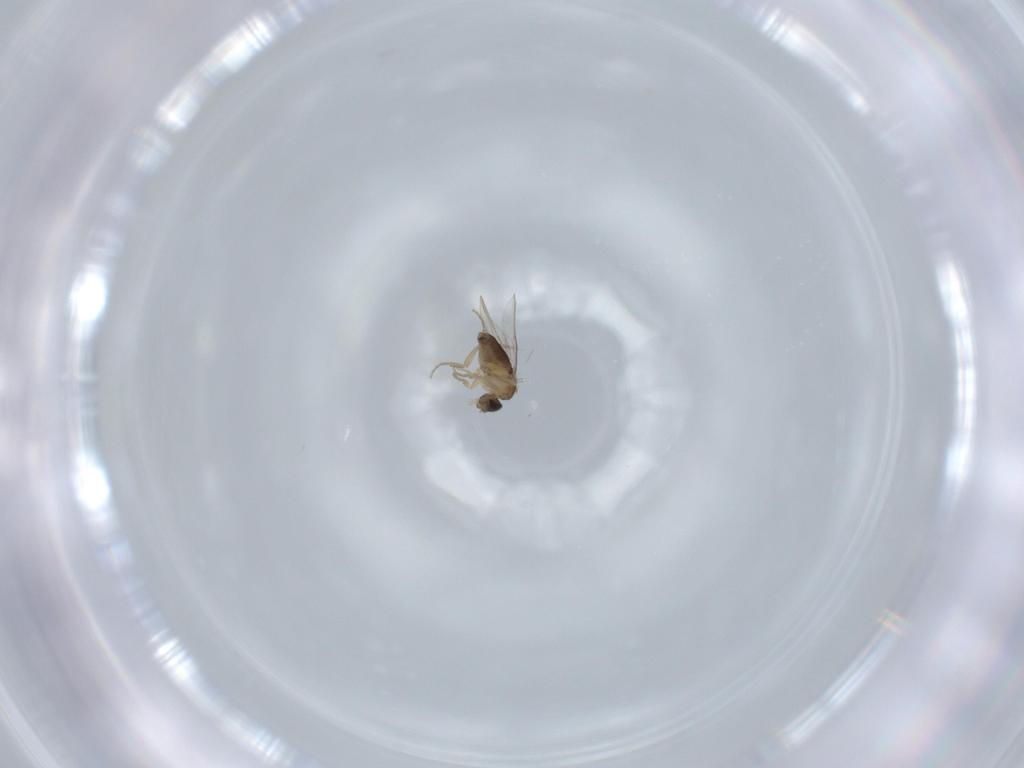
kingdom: Animalia
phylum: Arthropoda
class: Insecta
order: Diptera
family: Phoridae
